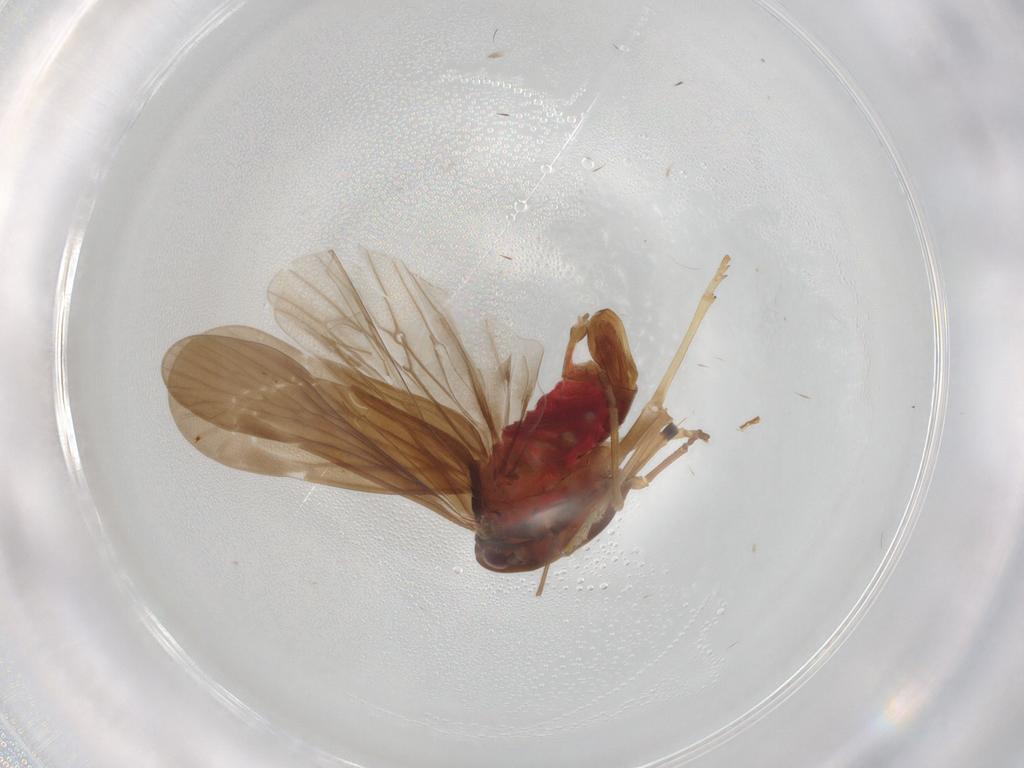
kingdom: Animalia
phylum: Arthropoda
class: Insecta
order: Hemiptera
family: Derbidae
